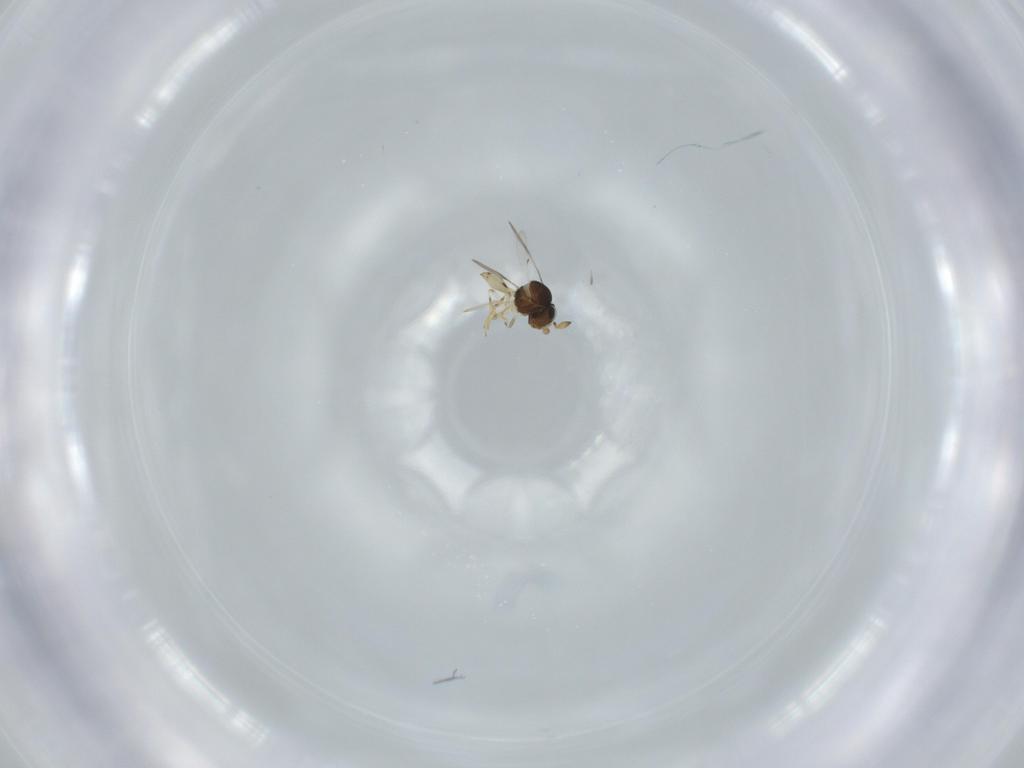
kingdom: Animalia
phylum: Arthropoda
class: Insecta
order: Hymenoptera
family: Scelionidae
